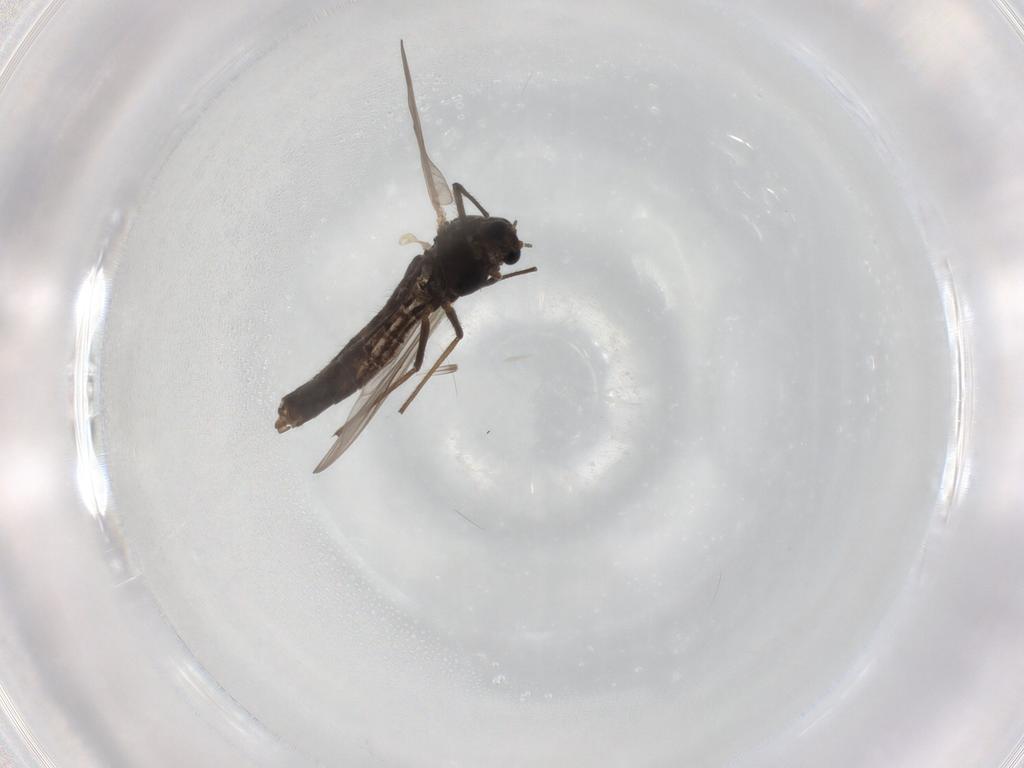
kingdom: Animalia
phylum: Arthropoda
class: Insecta
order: Diptera
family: Chironomidae
